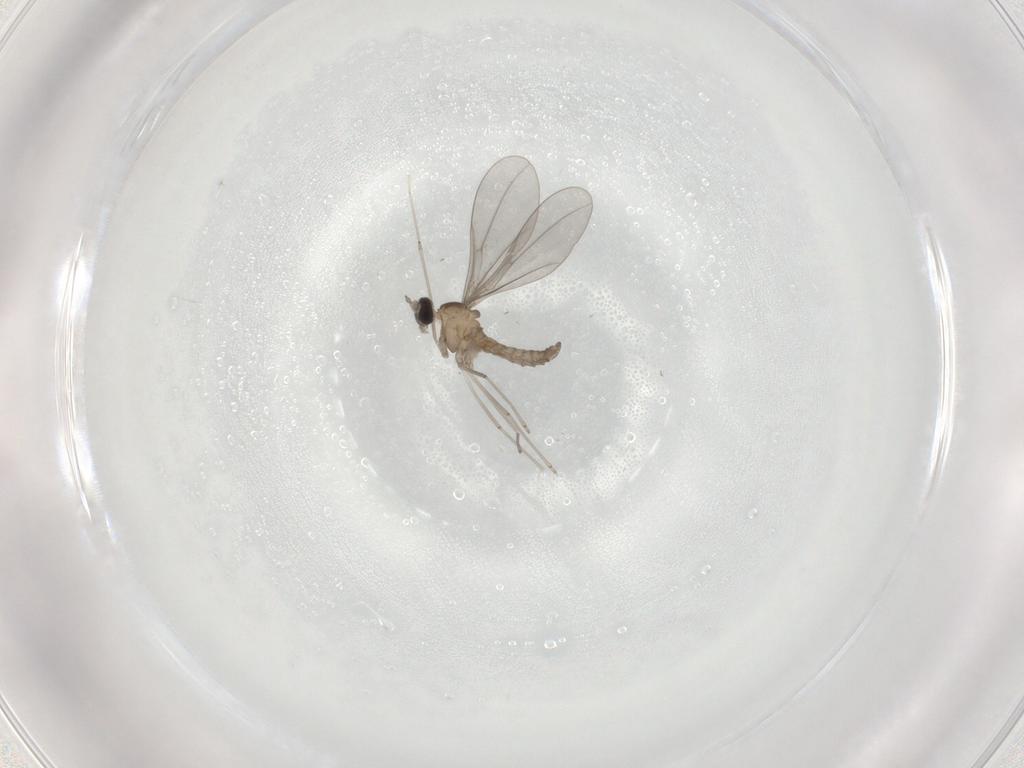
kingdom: Animalia
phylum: Arthropoda
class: Insecta
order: Diptera
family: Cecidomyiidae
